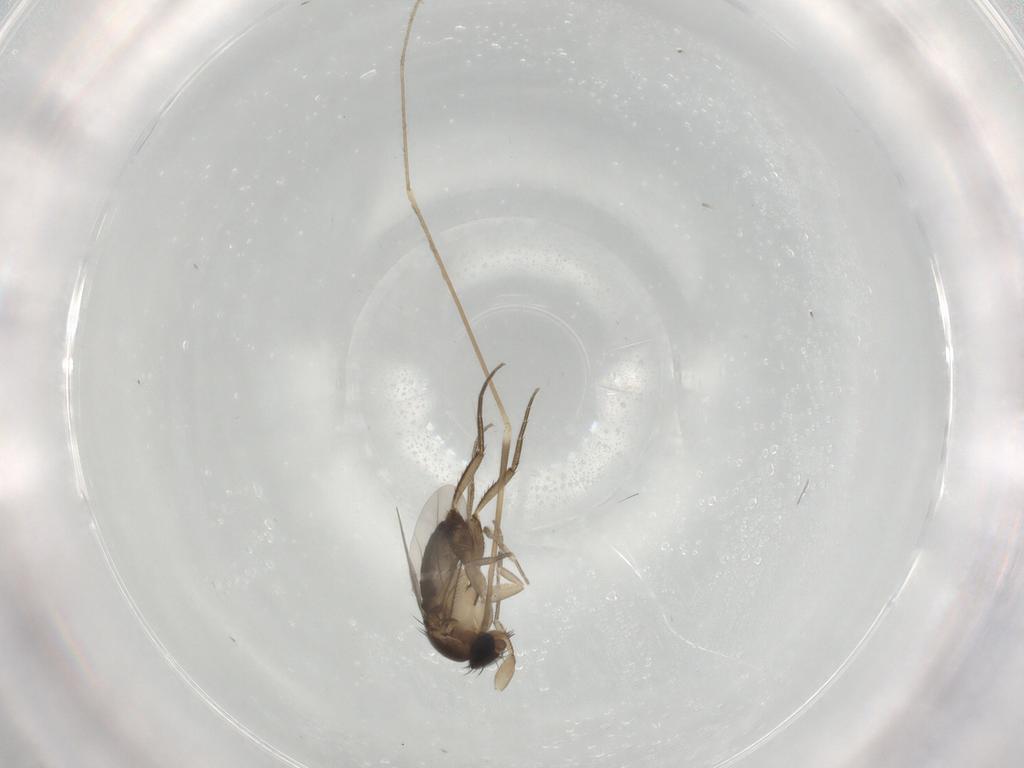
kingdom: Animalia
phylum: Arthropoda
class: Insecta
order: Diptera
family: Phoridae
